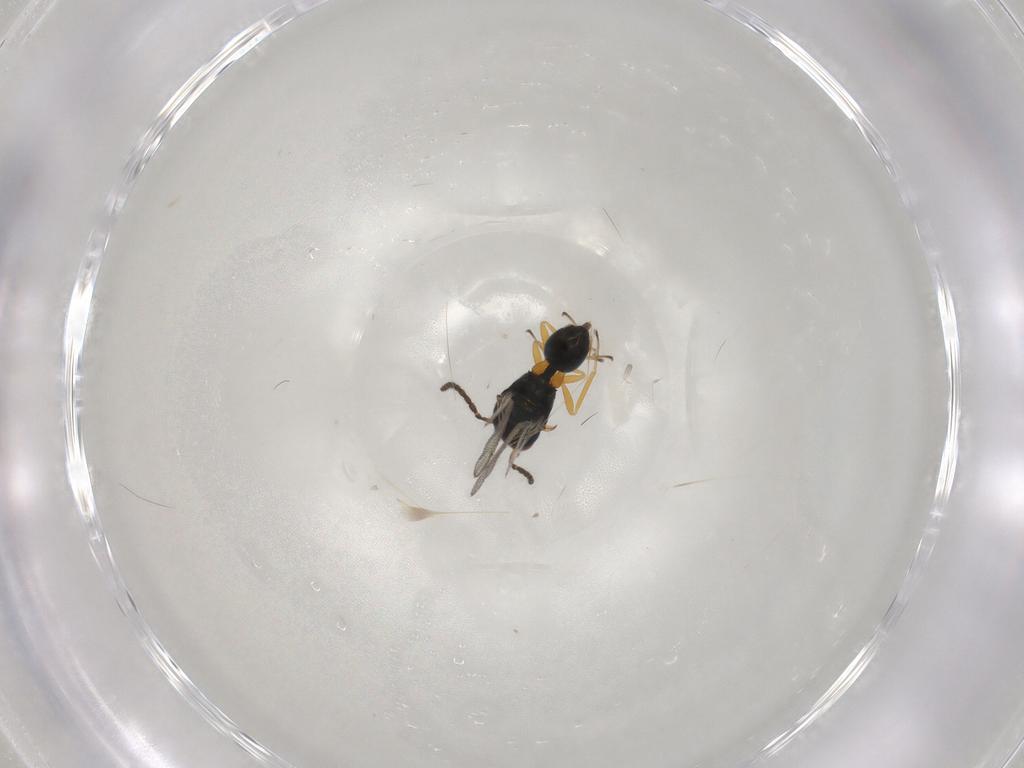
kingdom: Animalia
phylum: Arthropoda
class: Insecta
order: Hymenoptera
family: Pteromalidae
